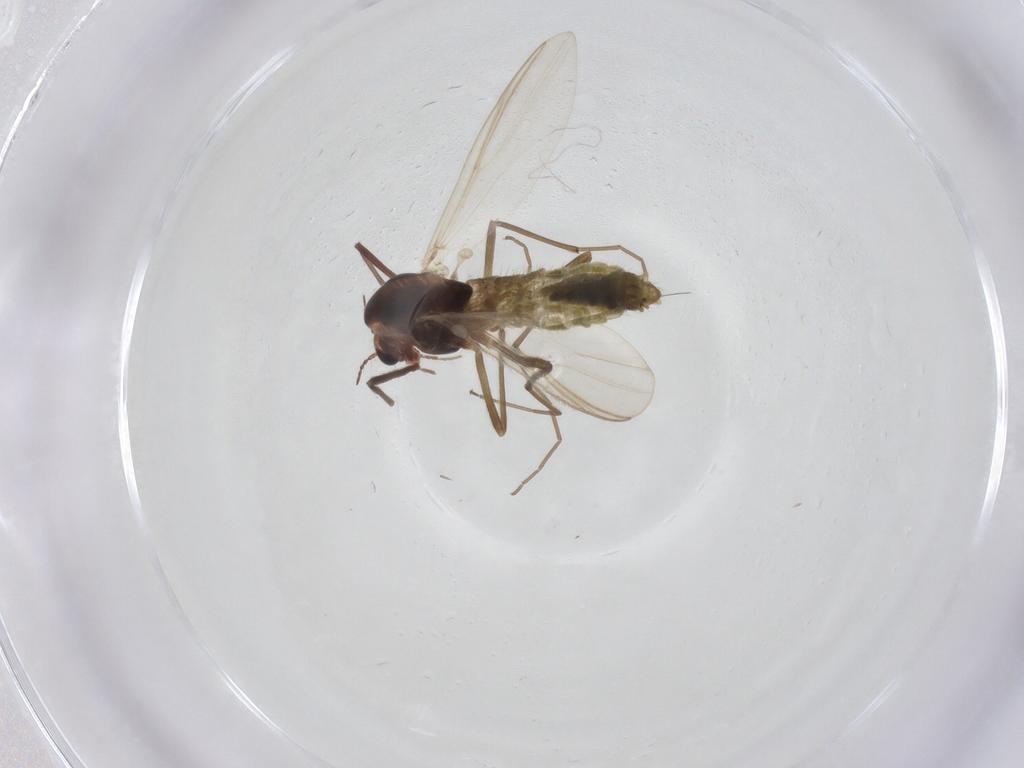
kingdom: Animalia
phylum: Arthropoda
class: Insecta
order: Diptera
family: Chironomidae
